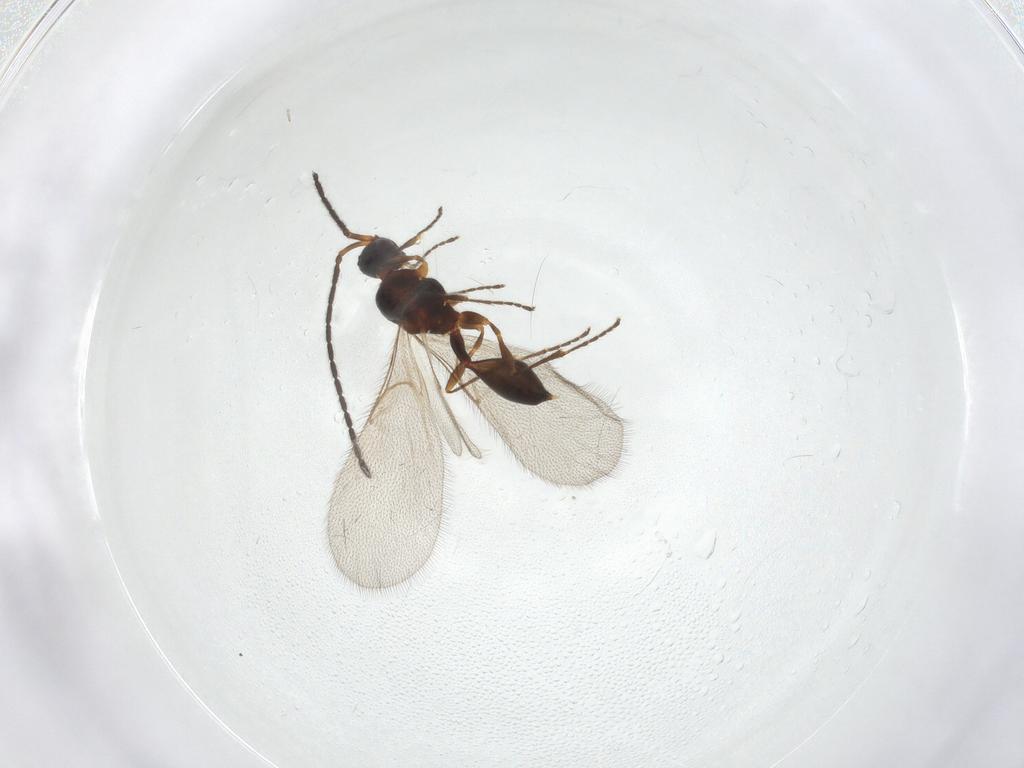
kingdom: Animalia
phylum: Arthropoda
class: Insecta
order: Hymenoptera
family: Diapriidae
